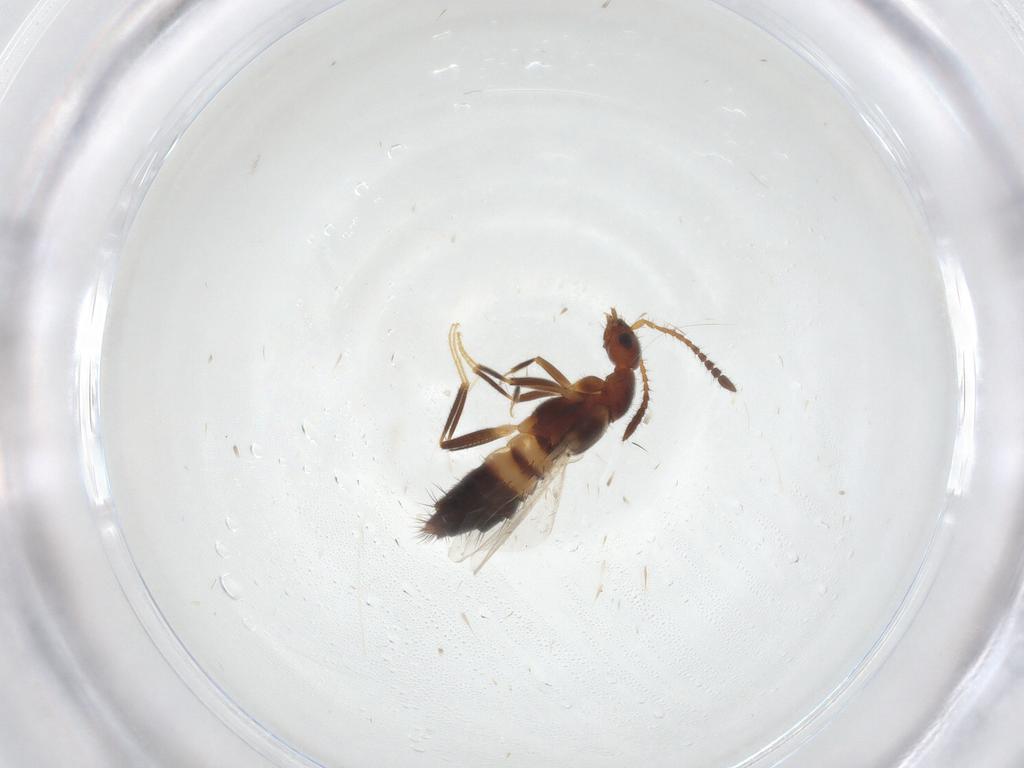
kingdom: Animalia
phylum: Arthropoda
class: Insecta
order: Coleoptera
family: Staphylinidae
